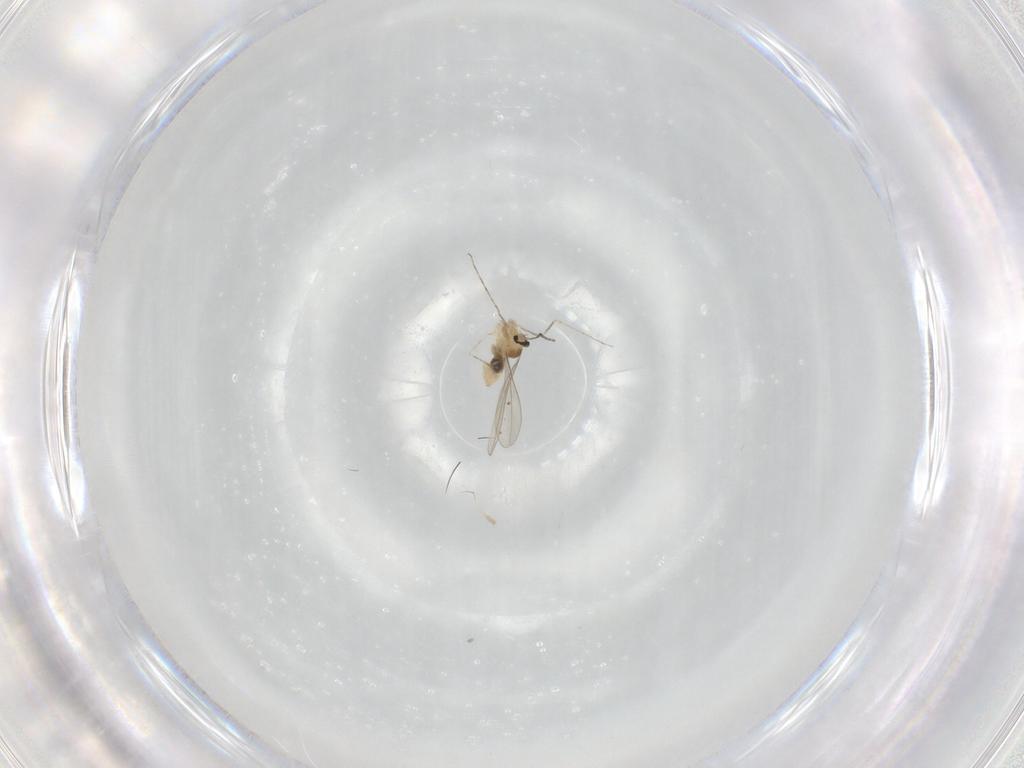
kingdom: Animalia
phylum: Arthropoda
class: Insecta
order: Diptera
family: Cecidomyiidae
